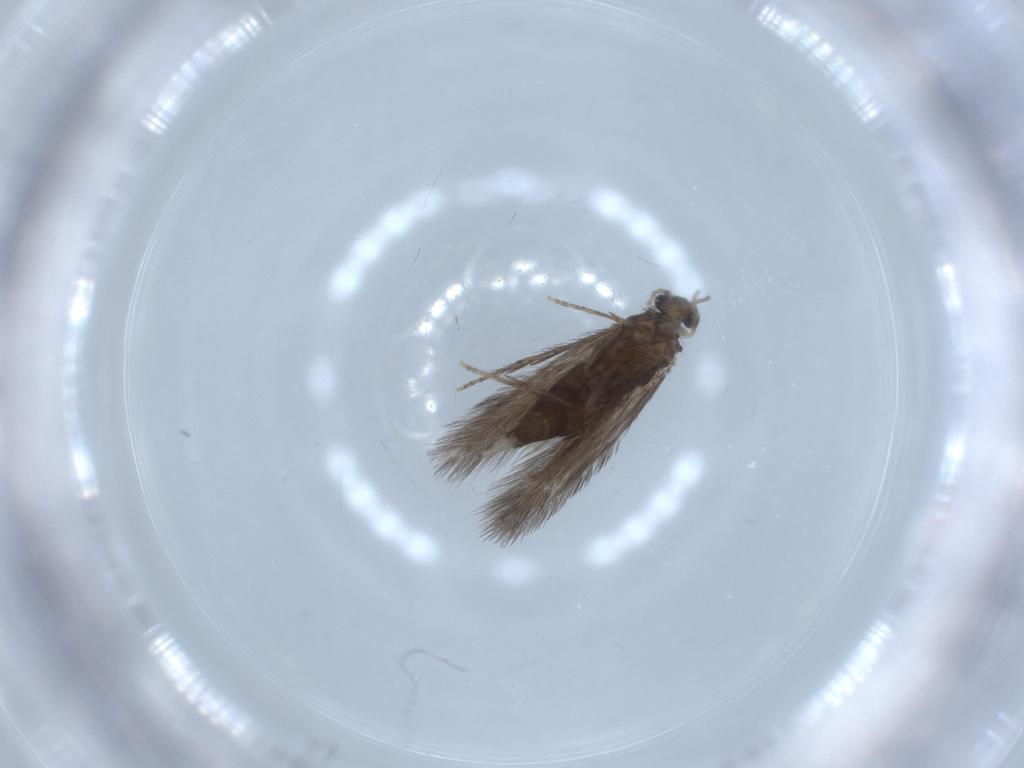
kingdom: Animalia
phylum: Arthropoda
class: Insecta
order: Trichoptera
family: Hydroptilidae
